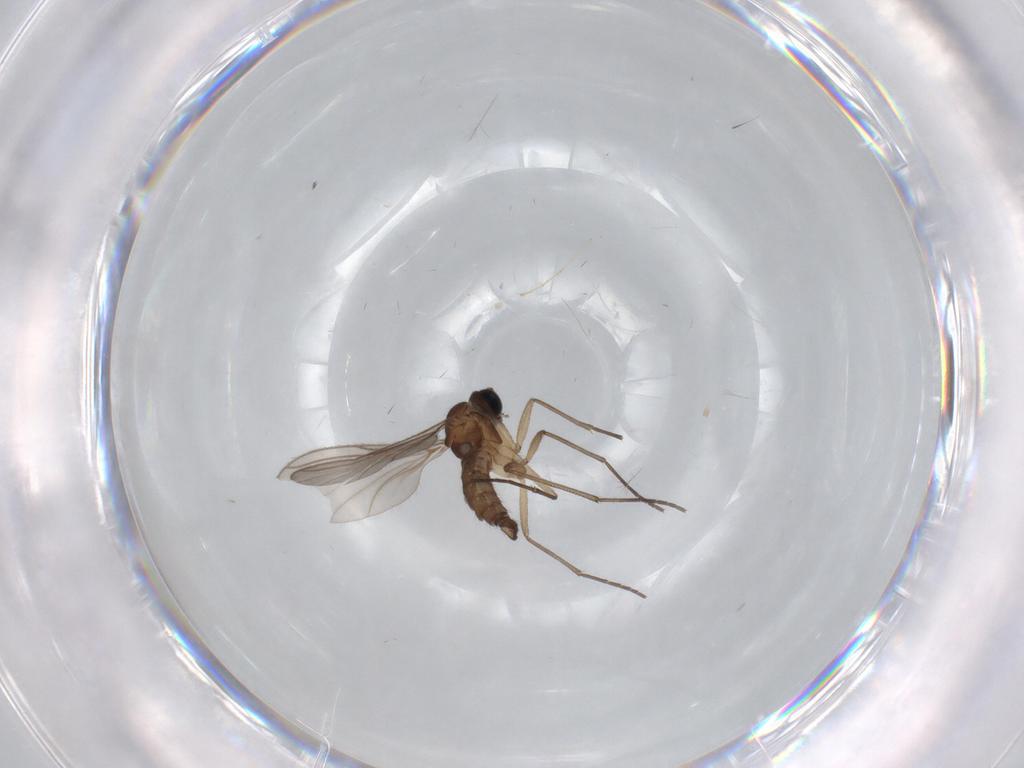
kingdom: Animalia
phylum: Arthropoda
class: Insecta
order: Diptera
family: Sciaridae
